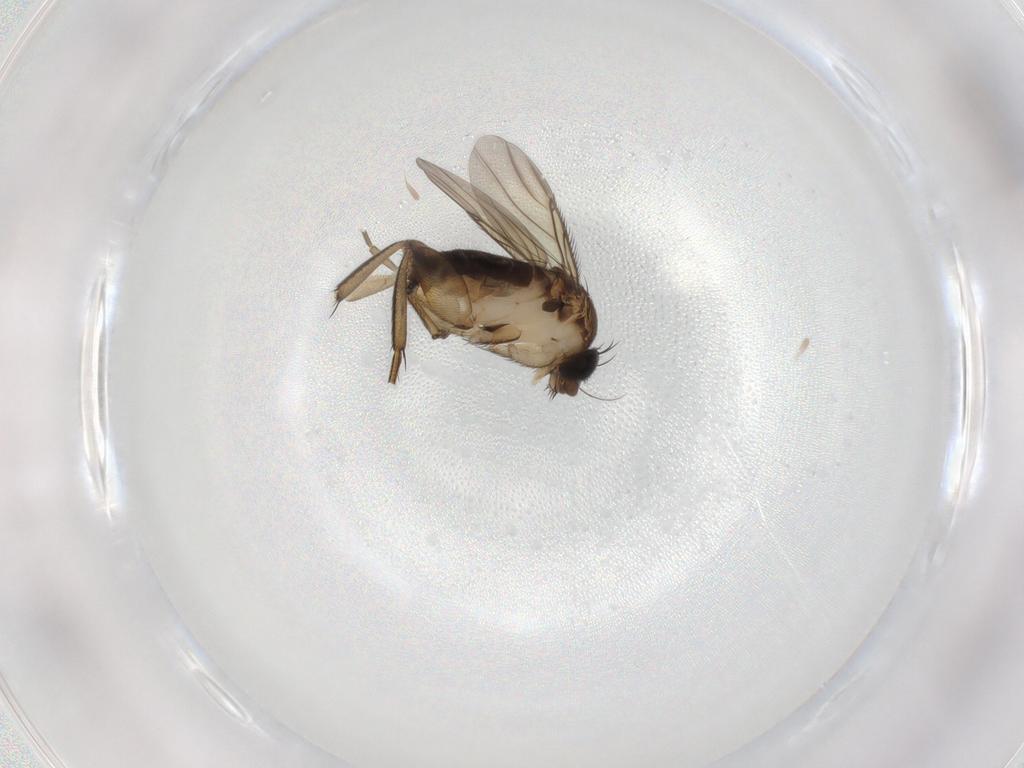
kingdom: Animalia
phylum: Arthropoda
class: Insecta
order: Diptera
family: Phoridae
